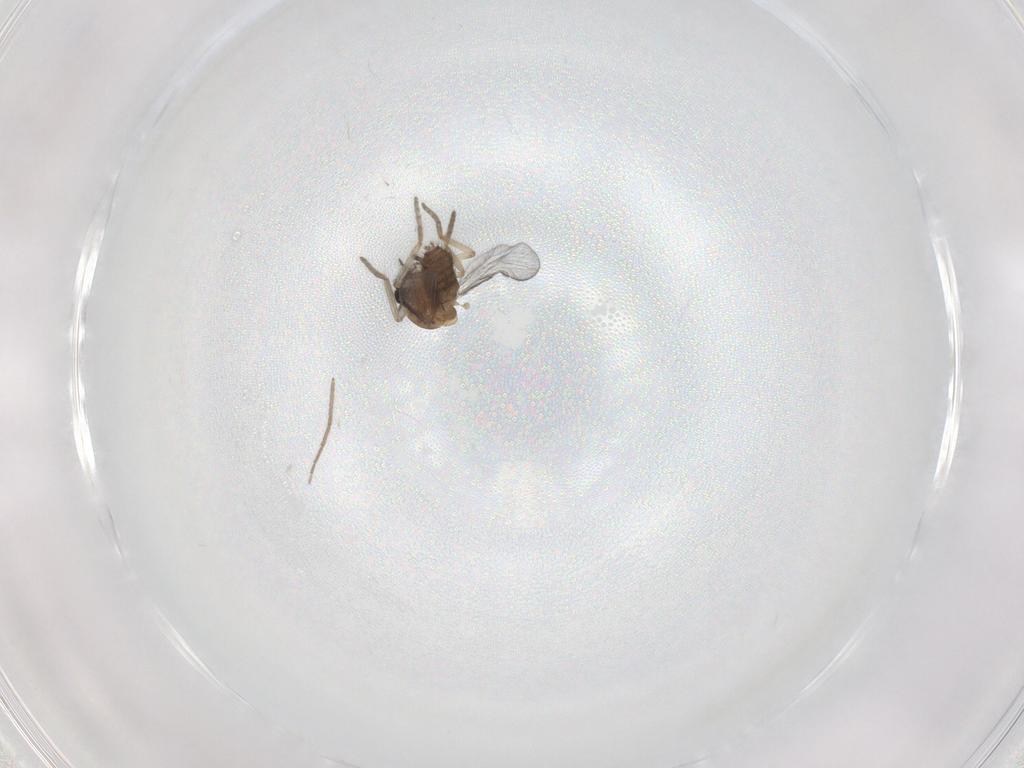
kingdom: Animalia
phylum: Arthropoda
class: Insecta
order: Diptera
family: Chironomidae
